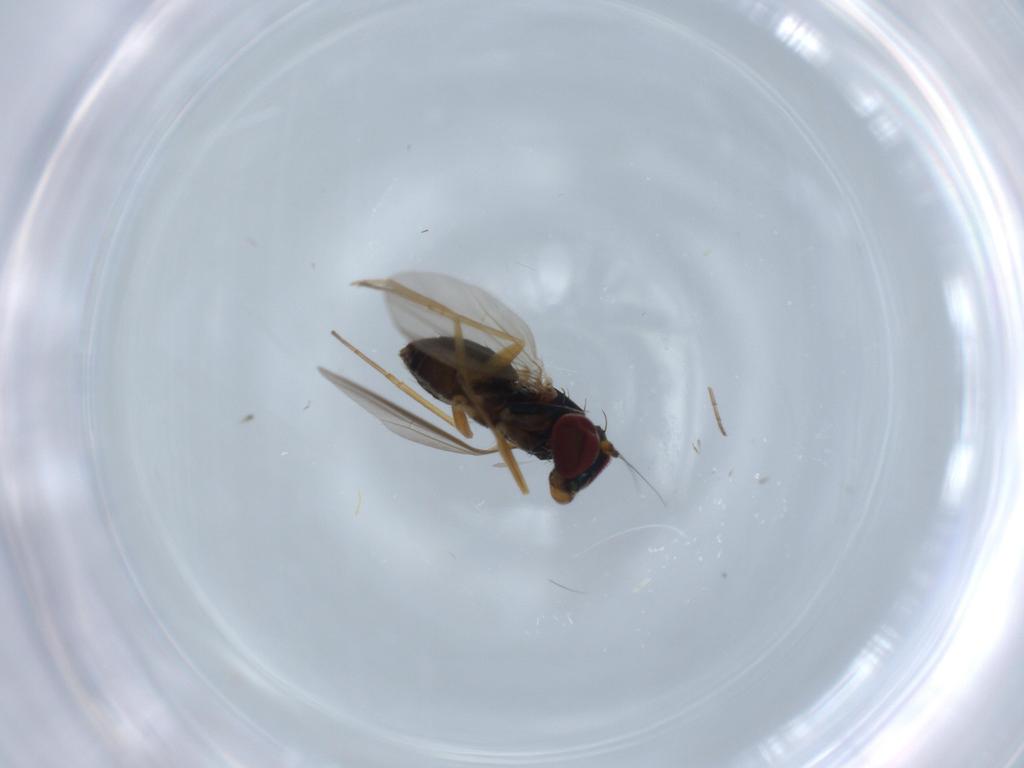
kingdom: Animalia
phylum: Arthropoda
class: Insecta
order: Diptera
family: Dolichopodidae
